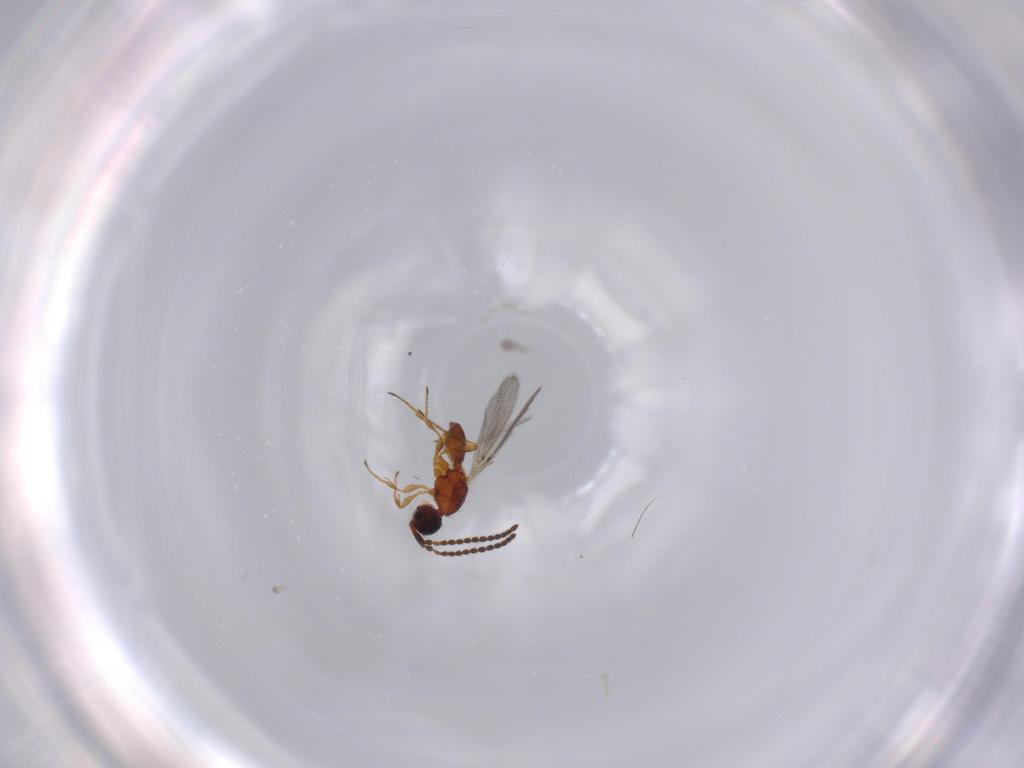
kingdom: Animalia
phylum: Arthropoda
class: Insecta
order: Hymenoptera
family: Diapriidae
